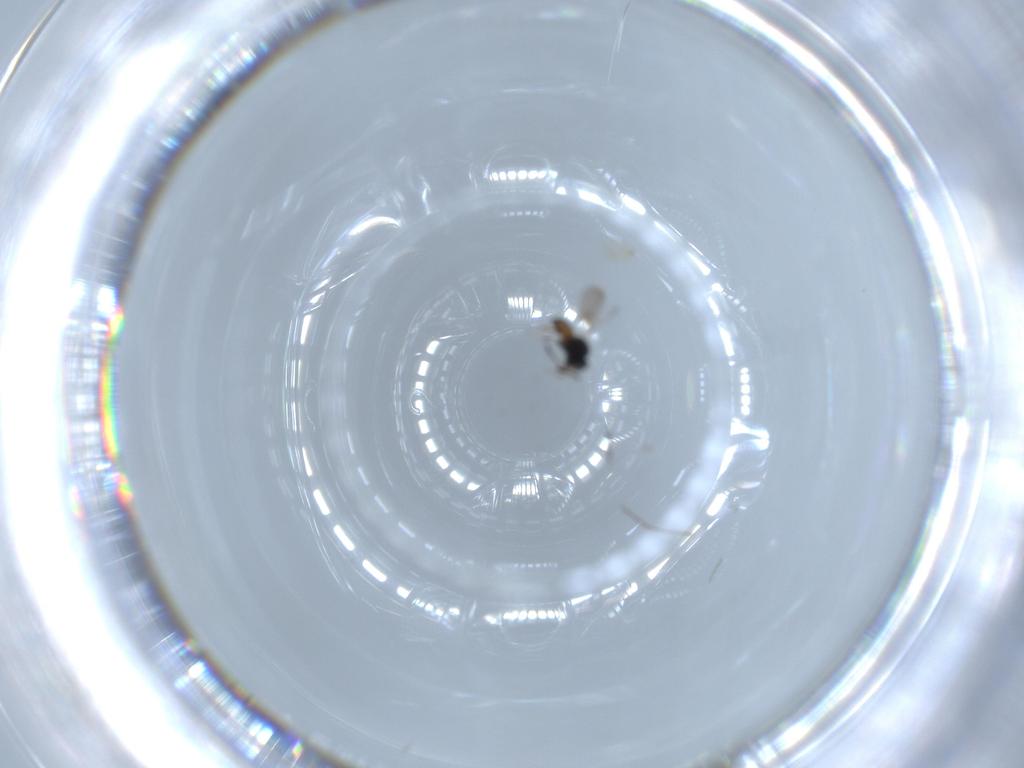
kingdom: Animalia
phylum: Arthropoda
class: Insecta
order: Hymenoptera
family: Scelionidae
